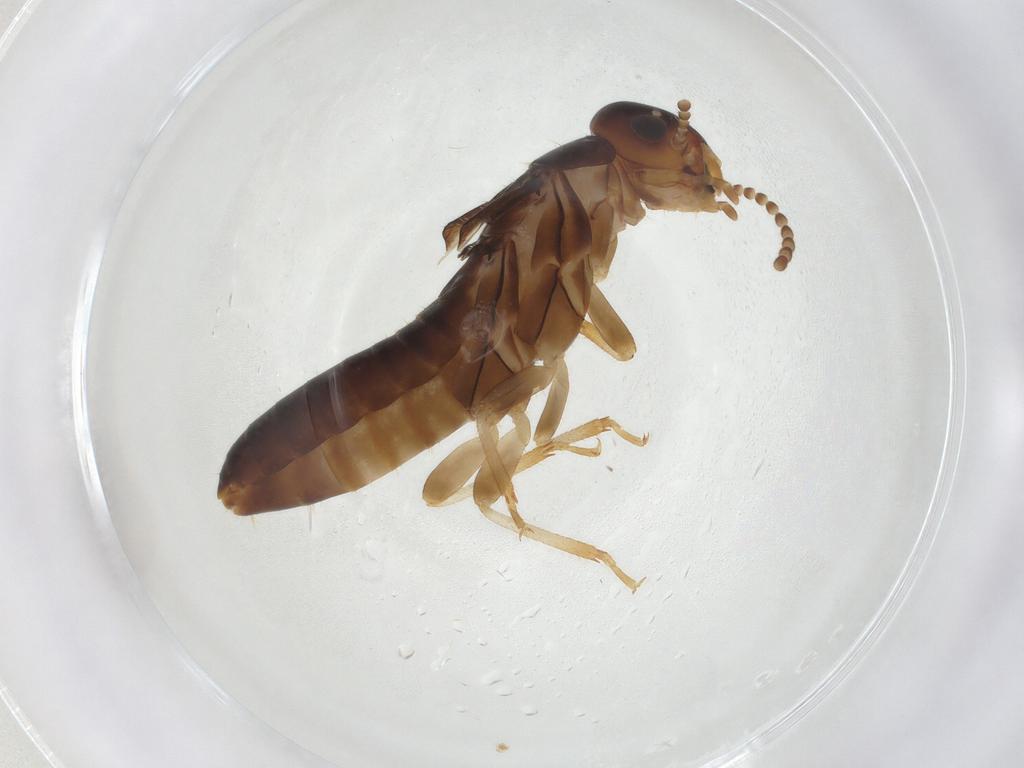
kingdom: Animalia
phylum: Arthropoda
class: Insecta
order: Blattodea
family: Kalotermitidae
